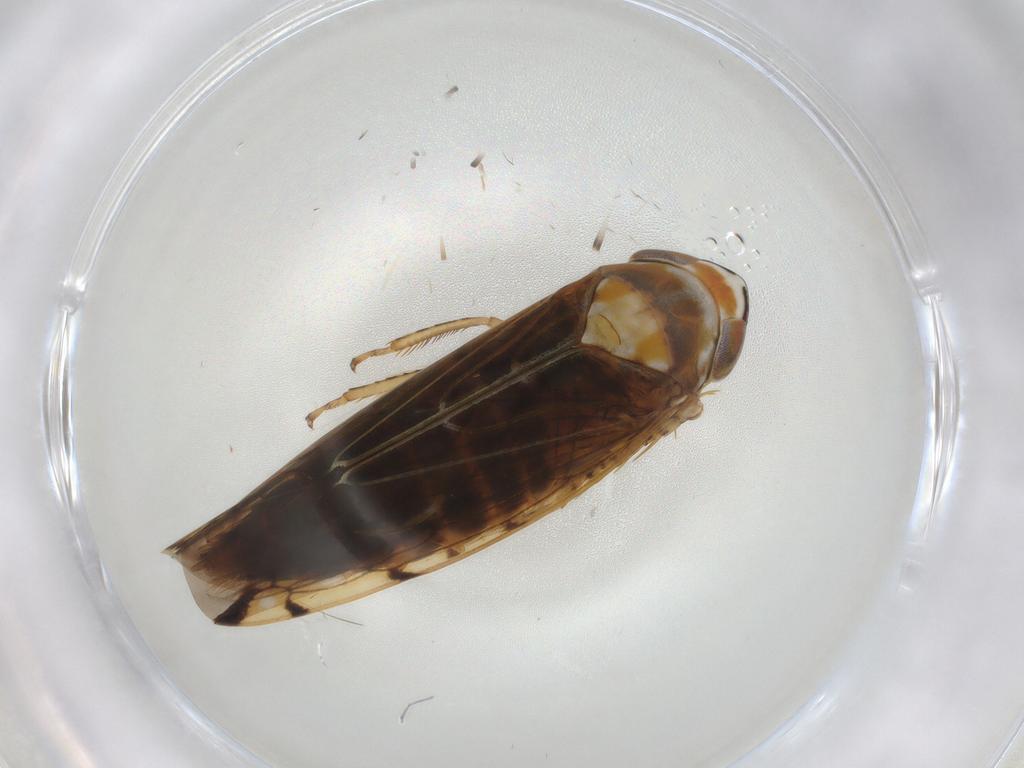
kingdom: Animalia
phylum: Arthropoda
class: Insecta
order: Hemiptera
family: Cicadellidae
